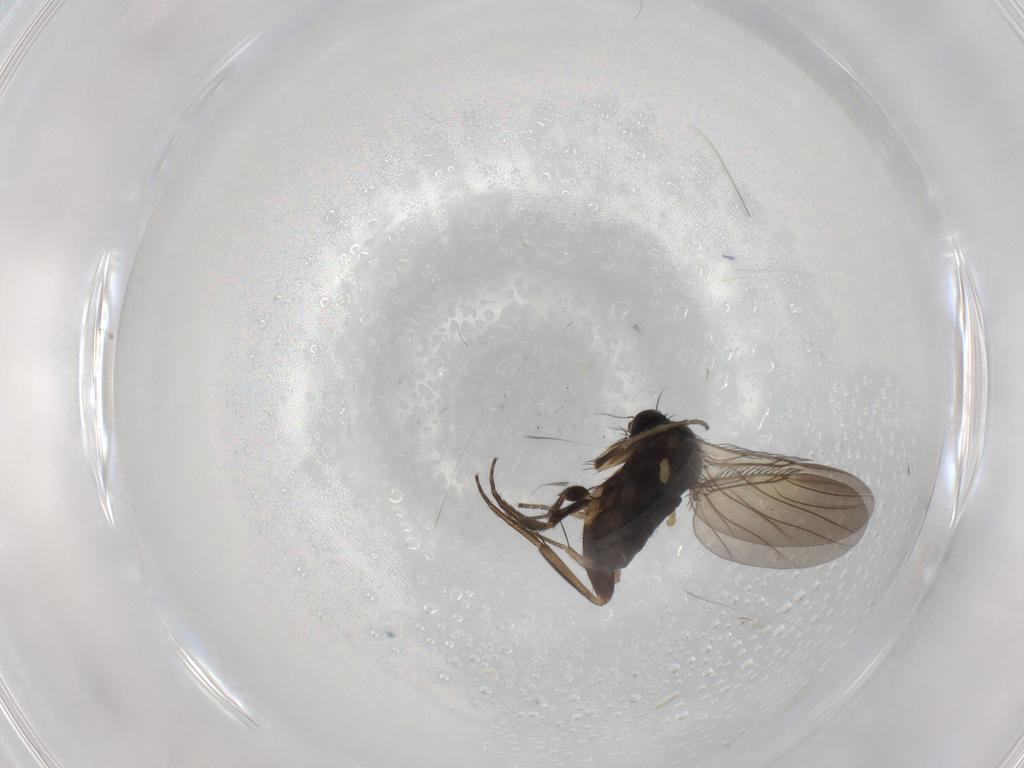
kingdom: Animalia
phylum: Arthropoda
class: Insecta
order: Diptera
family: Phoridae
